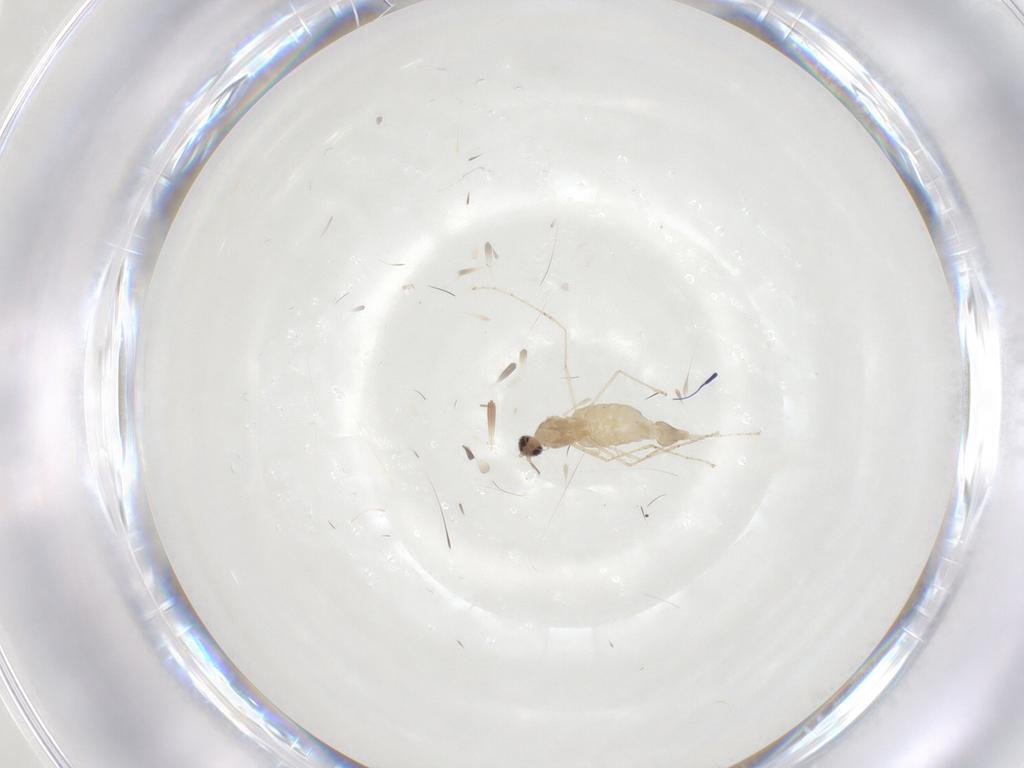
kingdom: Animalia
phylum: Arthropoda
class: Insecta
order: Diptera
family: Cecidomyiidae
